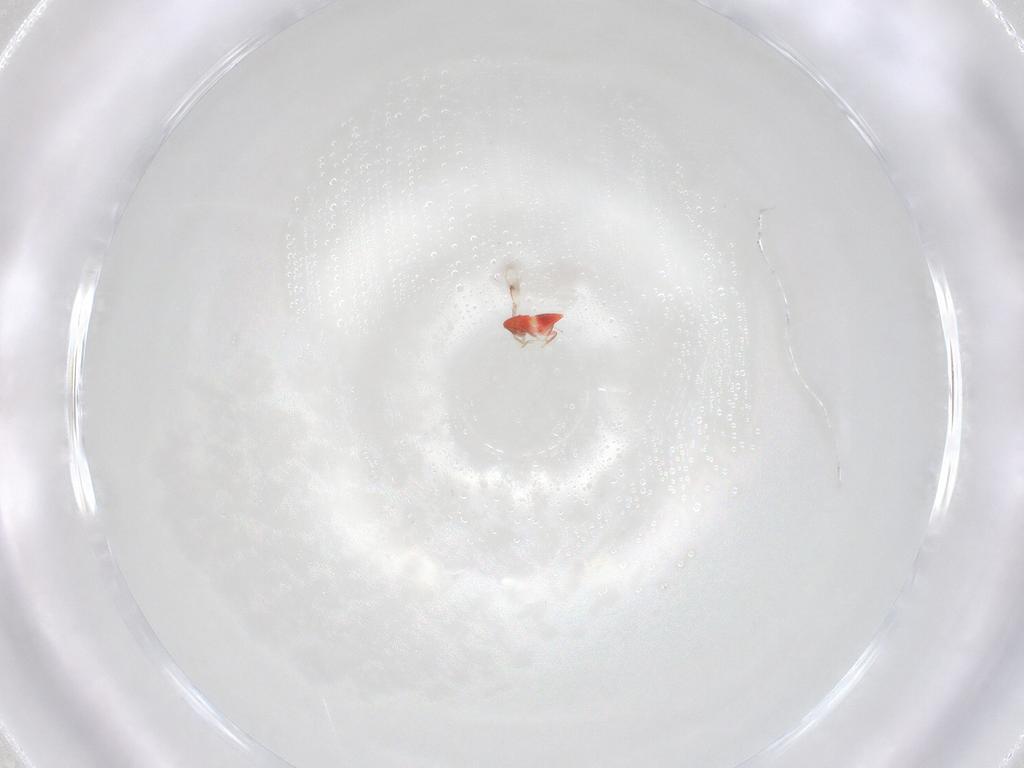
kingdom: Animalia
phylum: Arthropoda
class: Insecta
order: Hymenoptera
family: Trichogrammatidae
